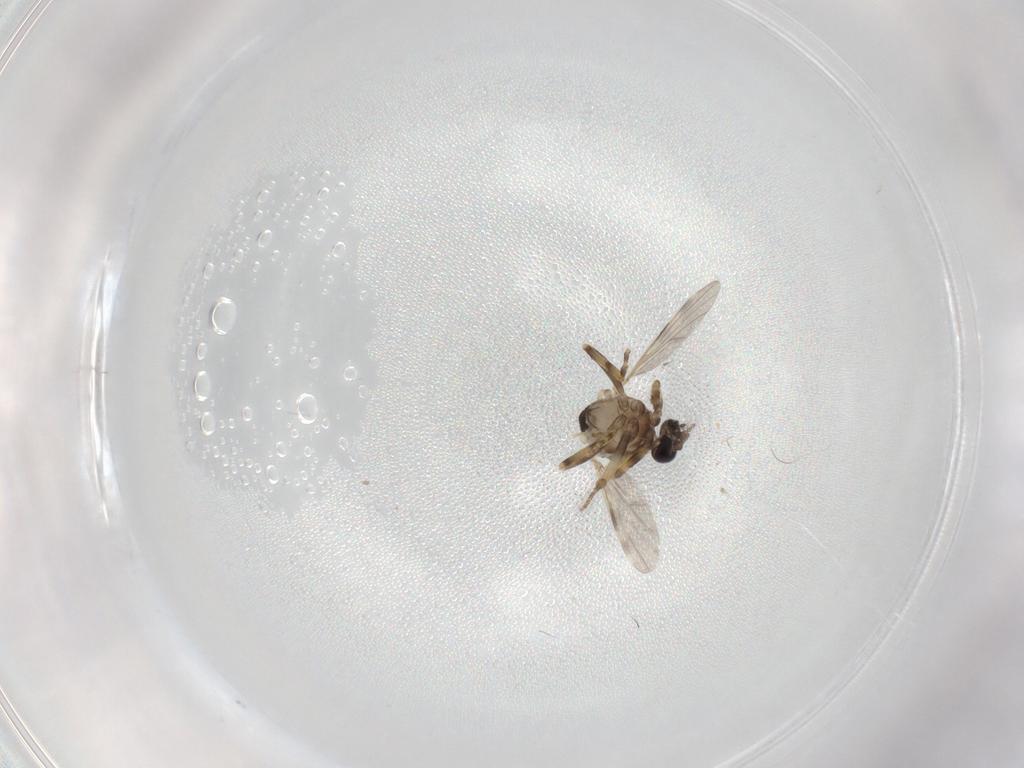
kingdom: Animalia
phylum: Arthropoda
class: Insecta
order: Diptera
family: Ceratopogonidae
